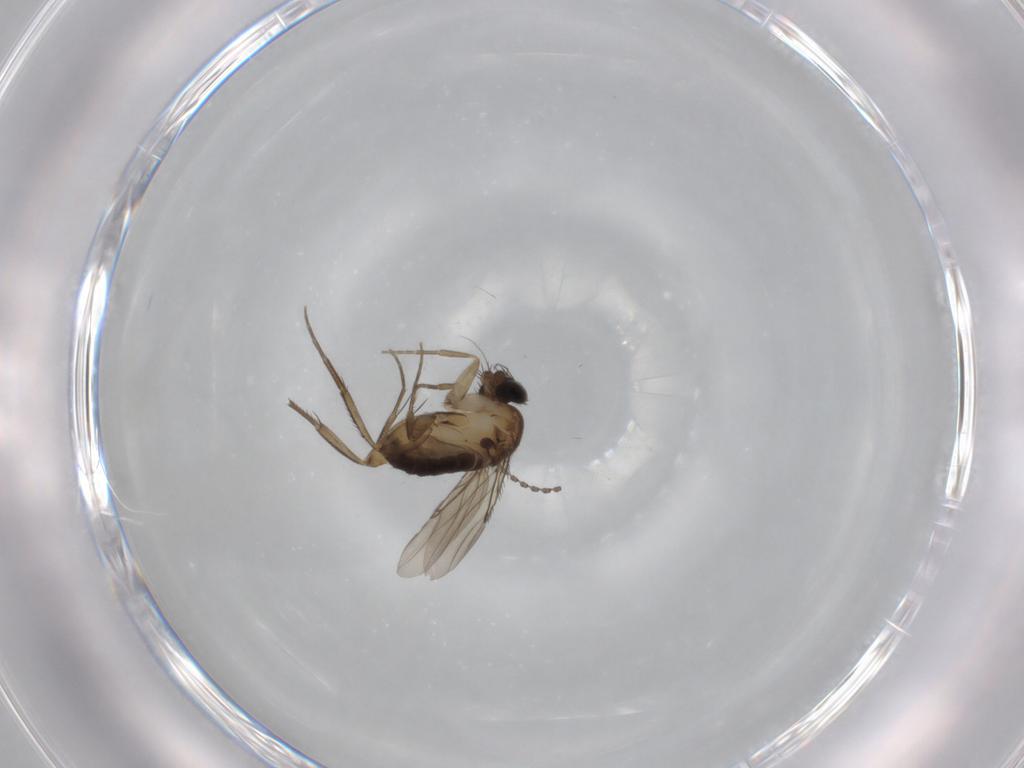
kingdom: Animalia
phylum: Arthropoda
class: Insecta
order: Diptera
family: Phoridae
